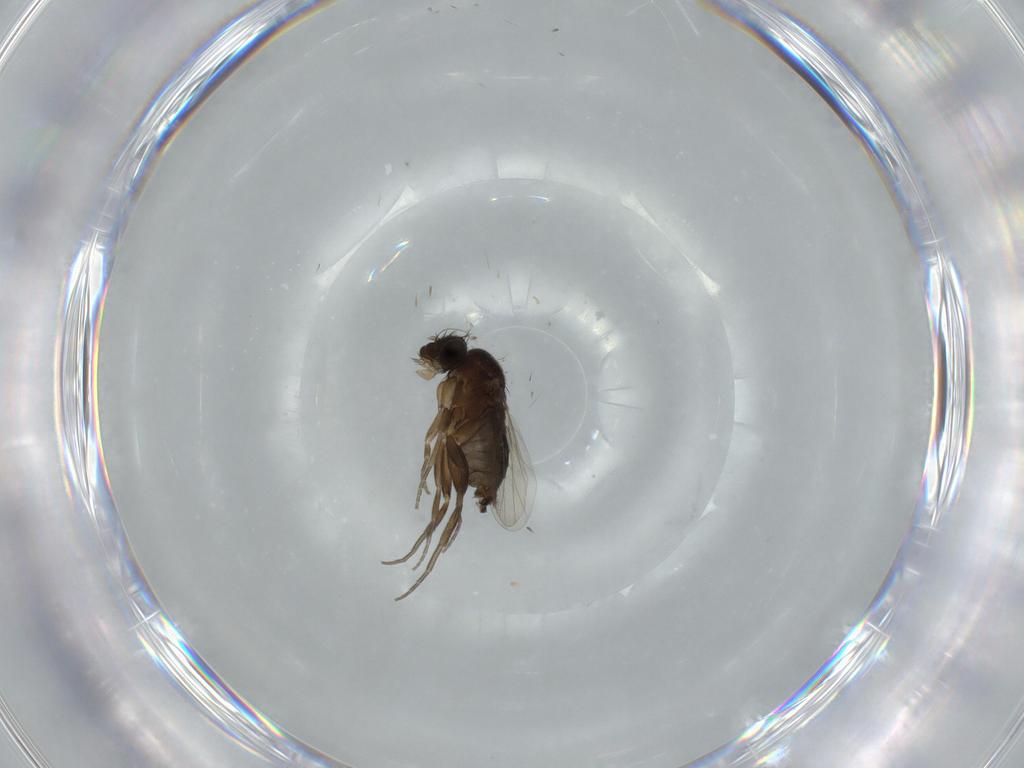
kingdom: Animalia
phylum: Arthropoda
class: Insecta
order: Diptera
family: Phoridae
